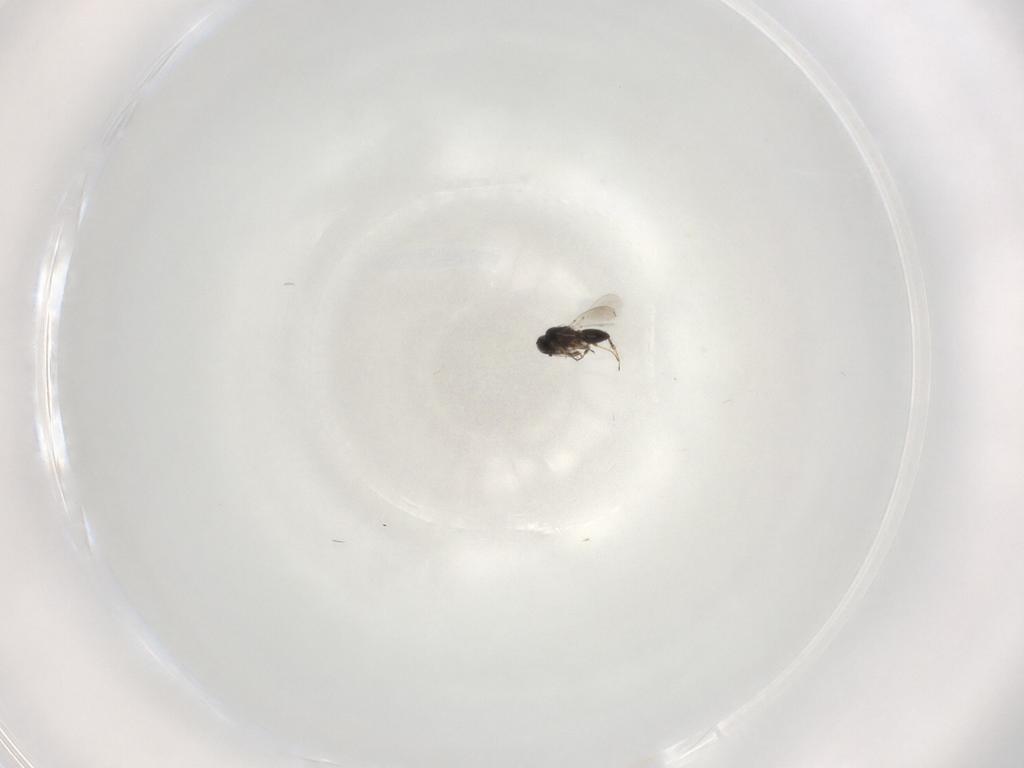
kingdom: Animalia
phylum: Arthropoda
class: Insecta
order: Hymenoptera
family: Platygastridae
